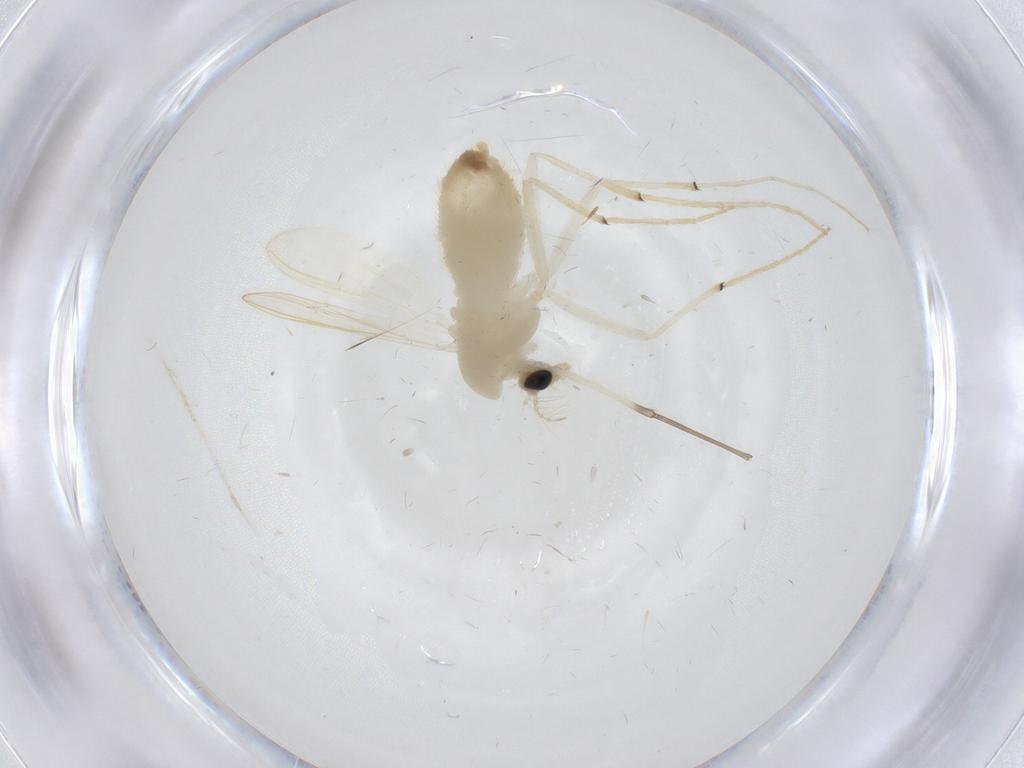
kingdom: Animalia
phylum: Arthropoda
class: Insecta
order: Diptera
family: Chironomidae
